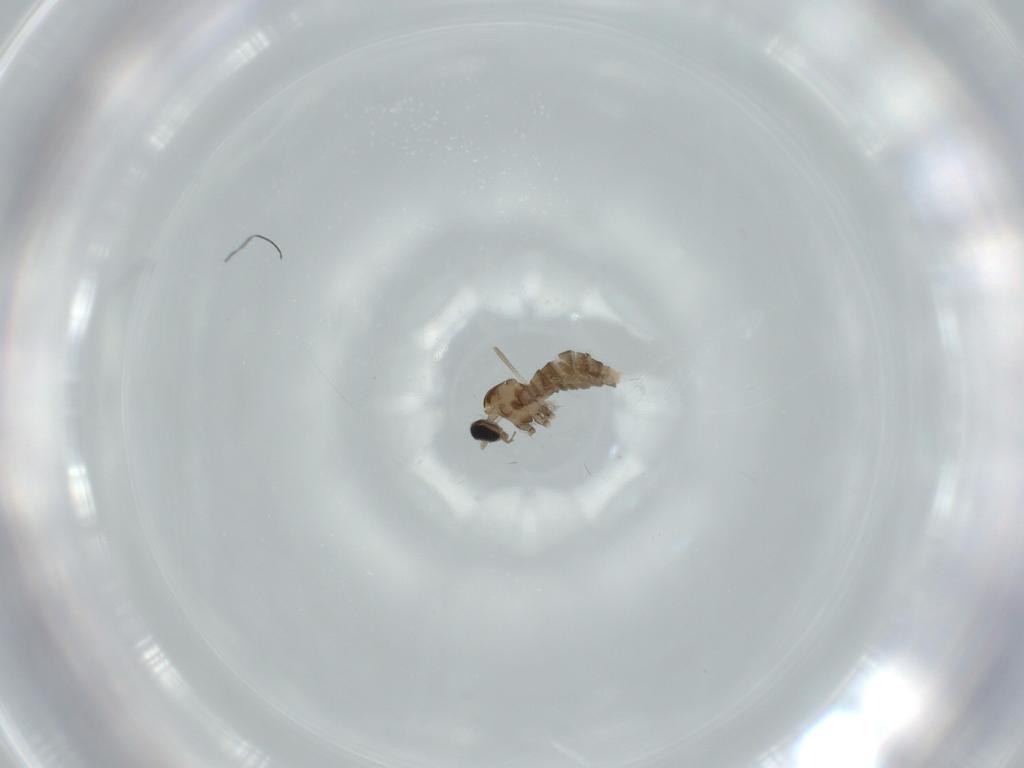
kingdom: Animalia
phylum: Arthropoda
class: Insecta
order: Diptera
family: Cecidomyiidae
